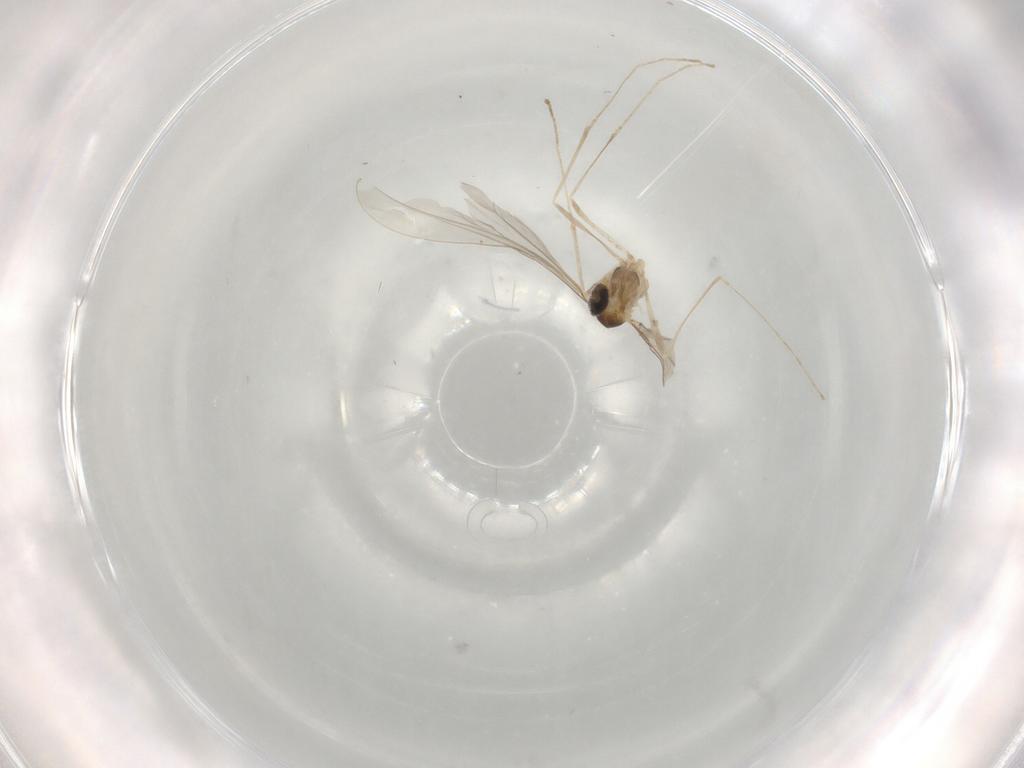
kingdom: Animalia
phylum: Arthropoda
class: Insecta
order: Diptera
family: Cecidomyiidae
